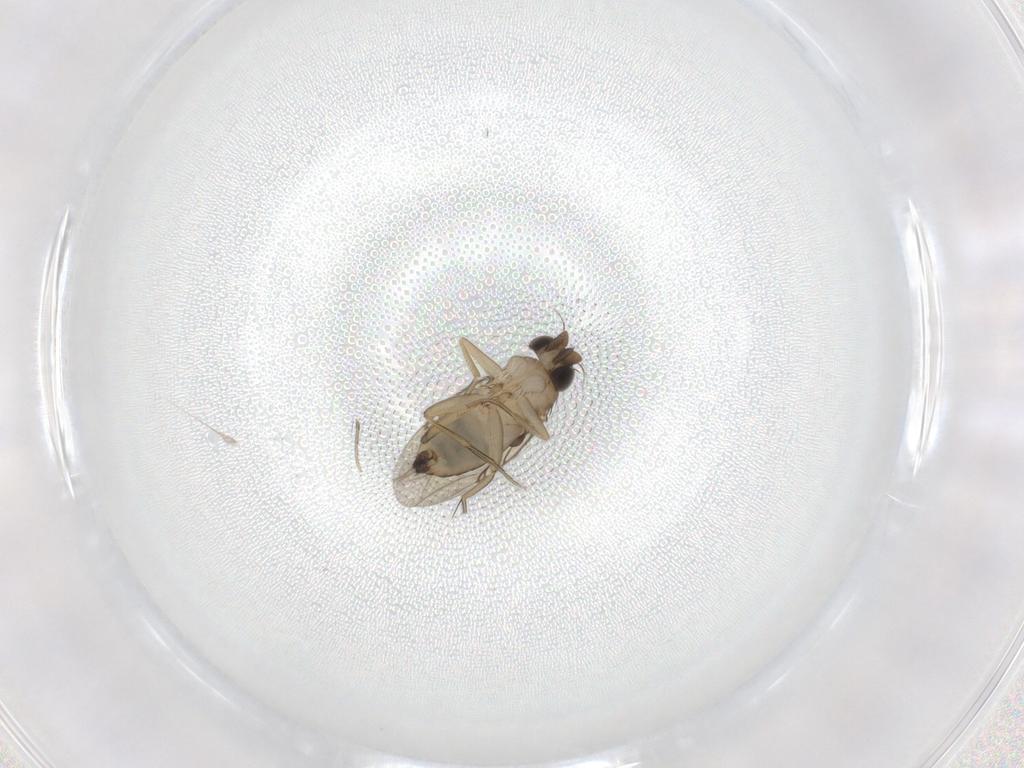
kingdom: Animalia
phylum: Arthropoda
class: Insecta
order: Diptera
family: Phoridae
